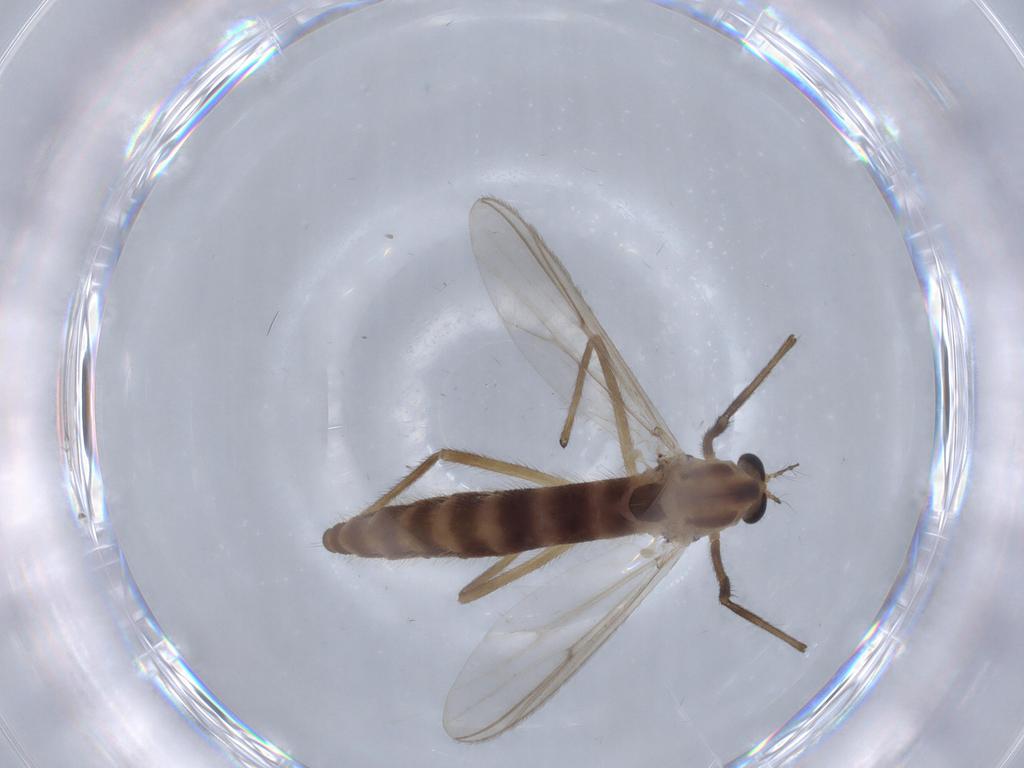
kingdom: Animalia
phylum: Arthropoda
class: Insecta
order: Diptera
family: Chironomidae
